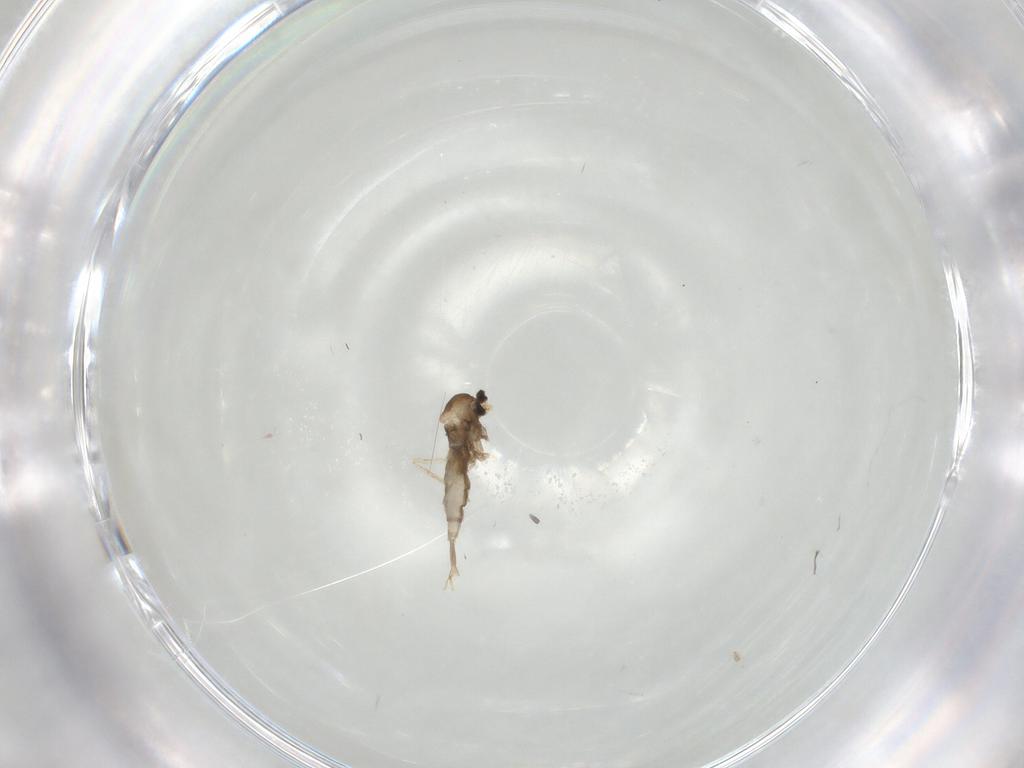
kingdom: Animalia
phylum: Arthropoda
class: Insecta
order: Diptera
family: Cecidomyiidae
